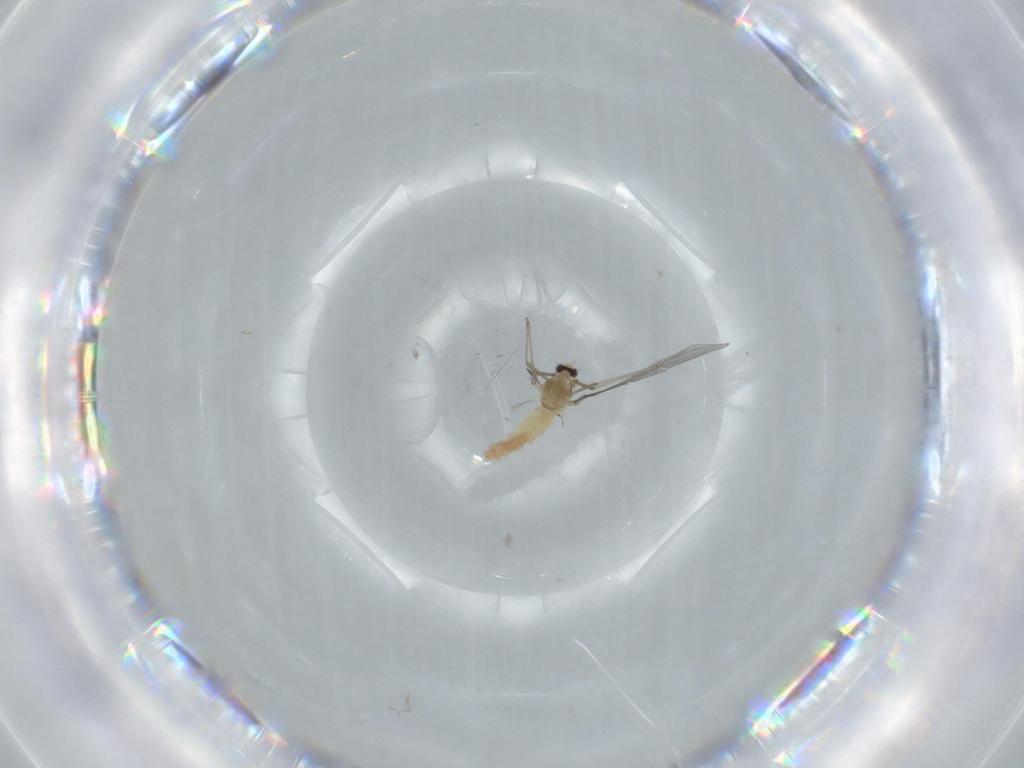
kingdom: Animalia
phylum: Arthropoda
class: Insecta
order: Diptera
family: Cecidomyiidae
